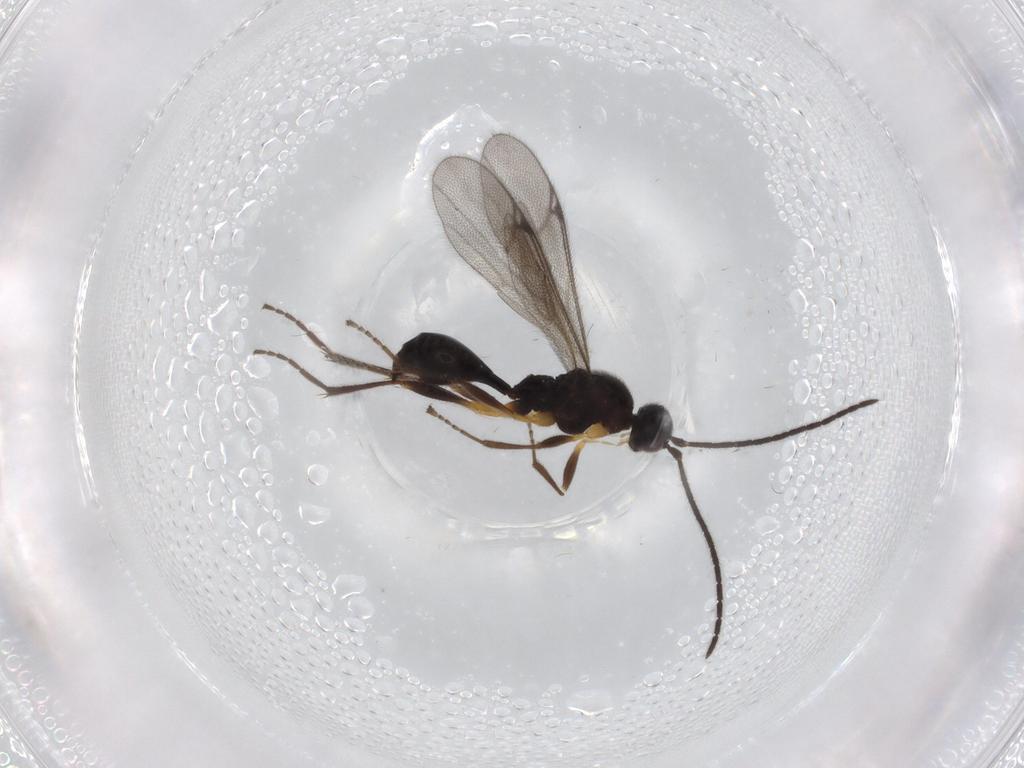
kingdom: Animalia
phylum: Arthropoda
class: Insecta
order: Hymenoptera
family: Proctotrupidae
